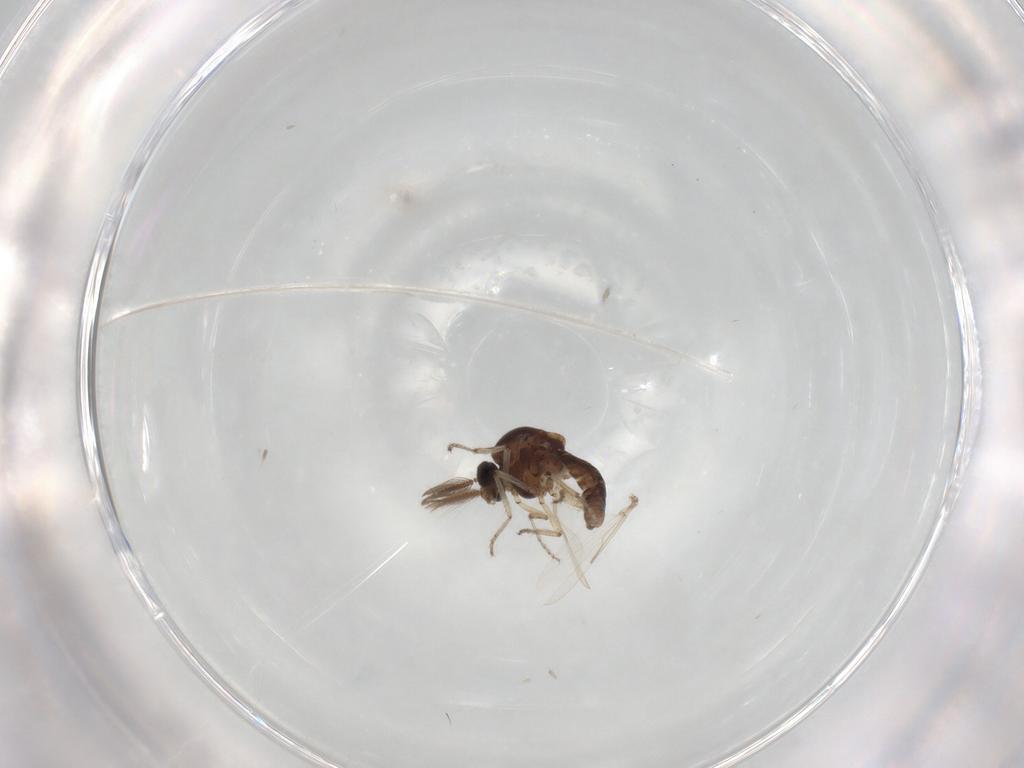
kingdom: Animalia
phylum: Arthropoda
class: Insecta
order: Diptera
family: Ceratopogonidae
